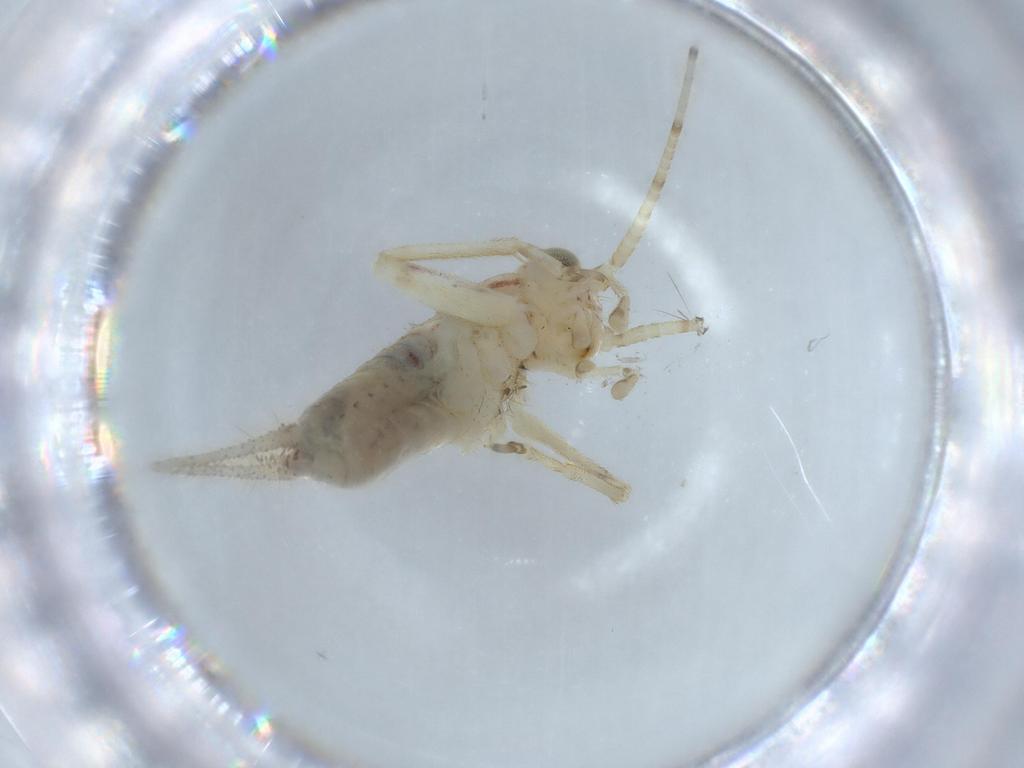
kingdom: Animalia
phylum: Arthropoda
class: Insecta
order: Orthoptera
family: Trigonidiidae
